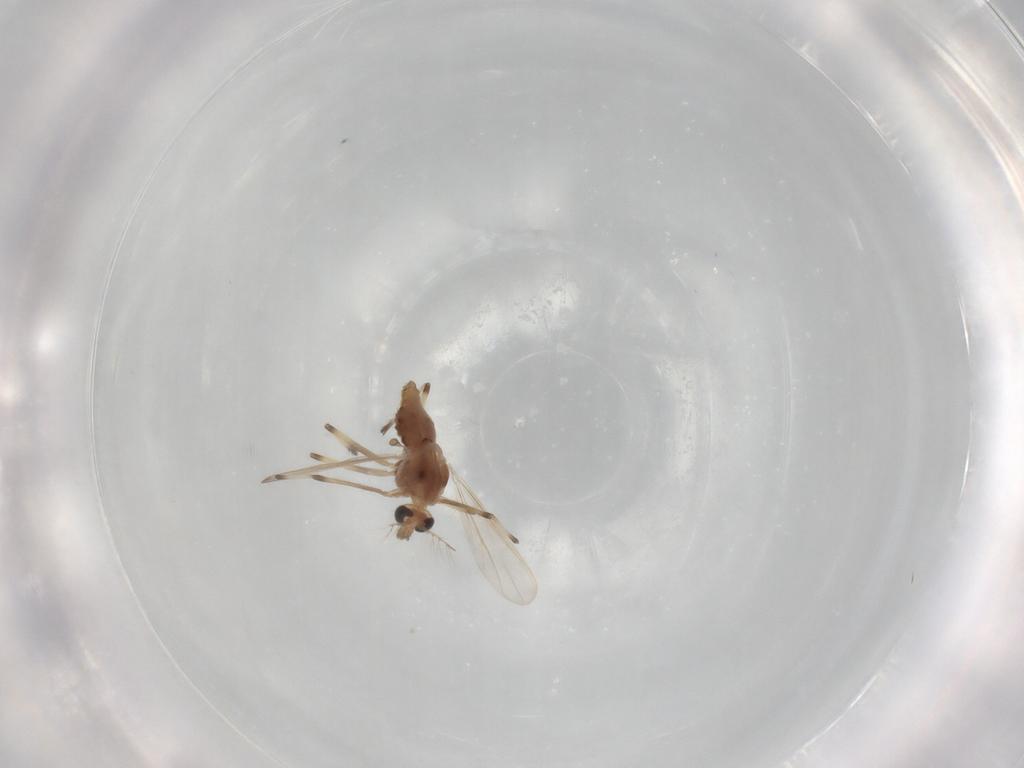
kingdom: Animalia
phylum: Arthropoda
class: Insecta
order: Diptera
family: Chironomidae
